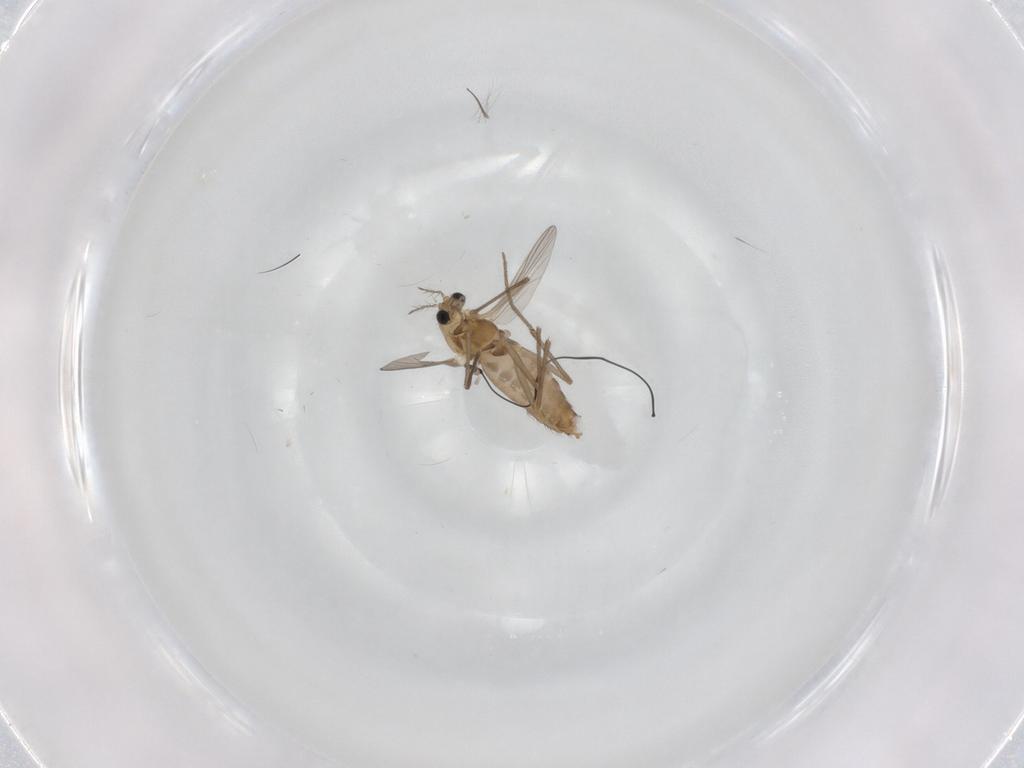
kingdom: Animalia
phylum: Arthropoda
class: Insecta
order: Diptera
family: Chironomidae
